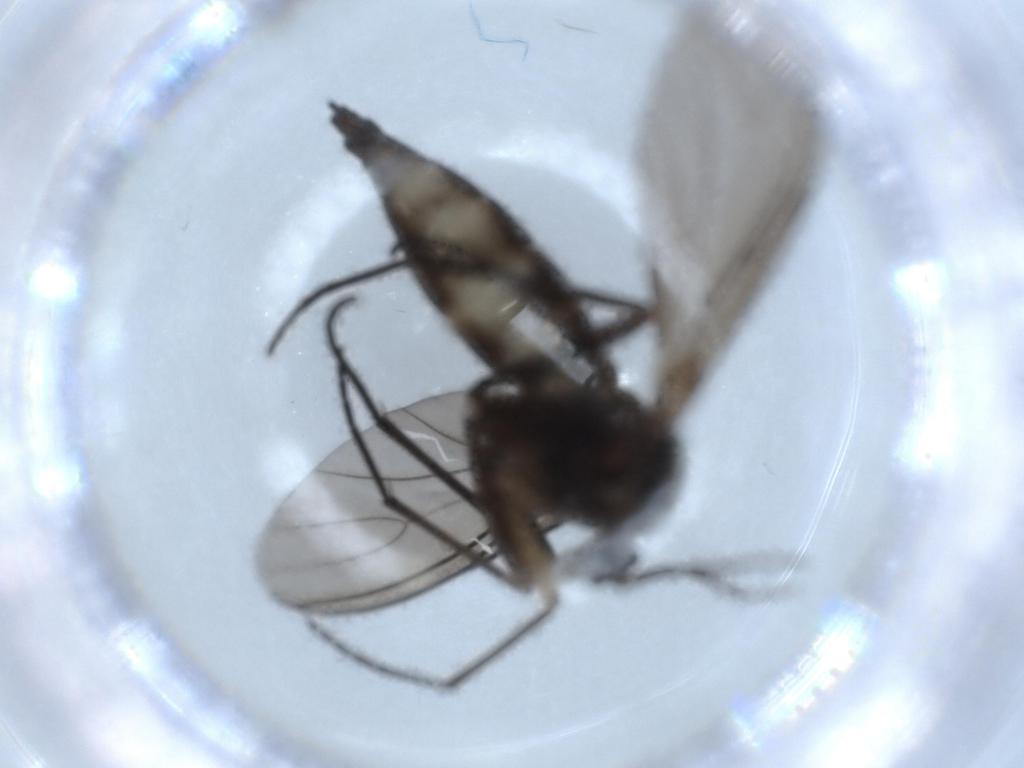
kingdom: Animalia
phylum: Arthropoda
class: Insecta
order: Diptera
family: Sciaridae
